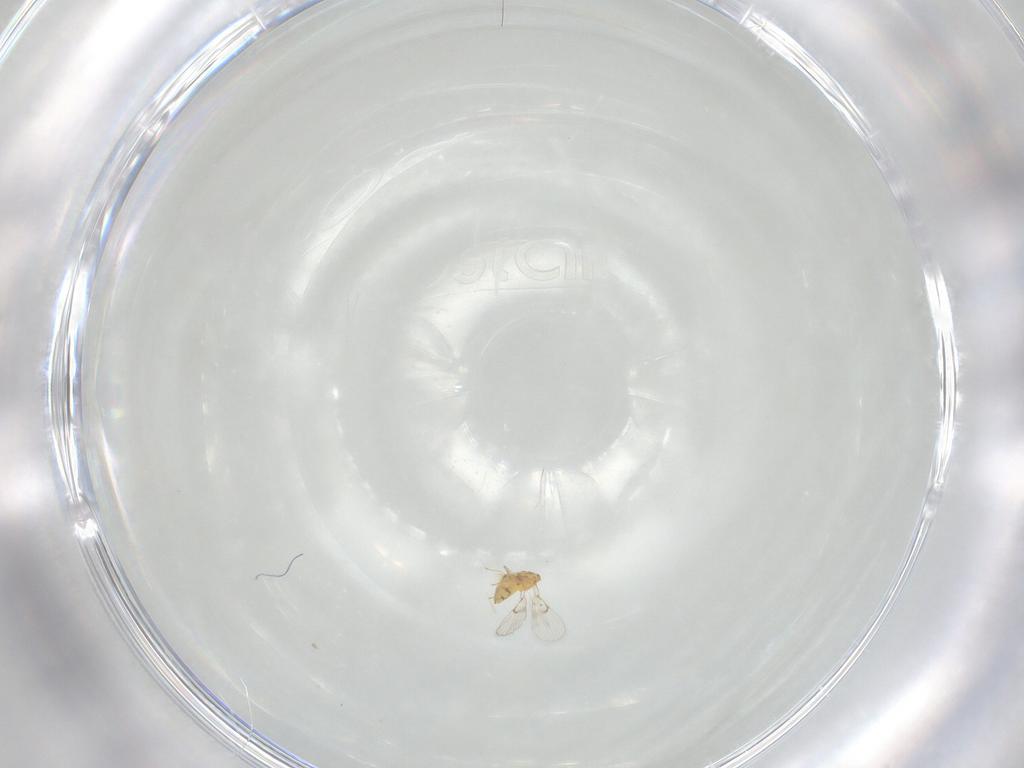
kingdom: Animalia
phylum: Arthropoda
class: Insecta
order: Hymenoptera
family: Trichogrammatidae
